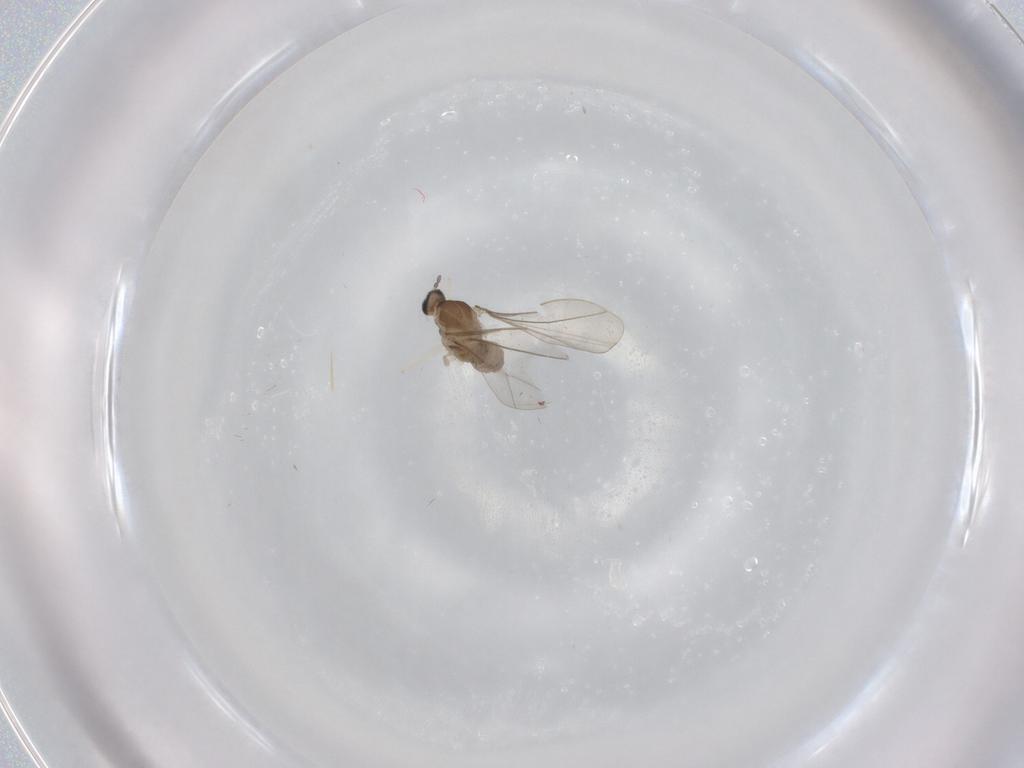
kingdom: Animalia
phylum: Arthropoda
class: Insecta
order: Diptera
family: Cecidomyiidae
